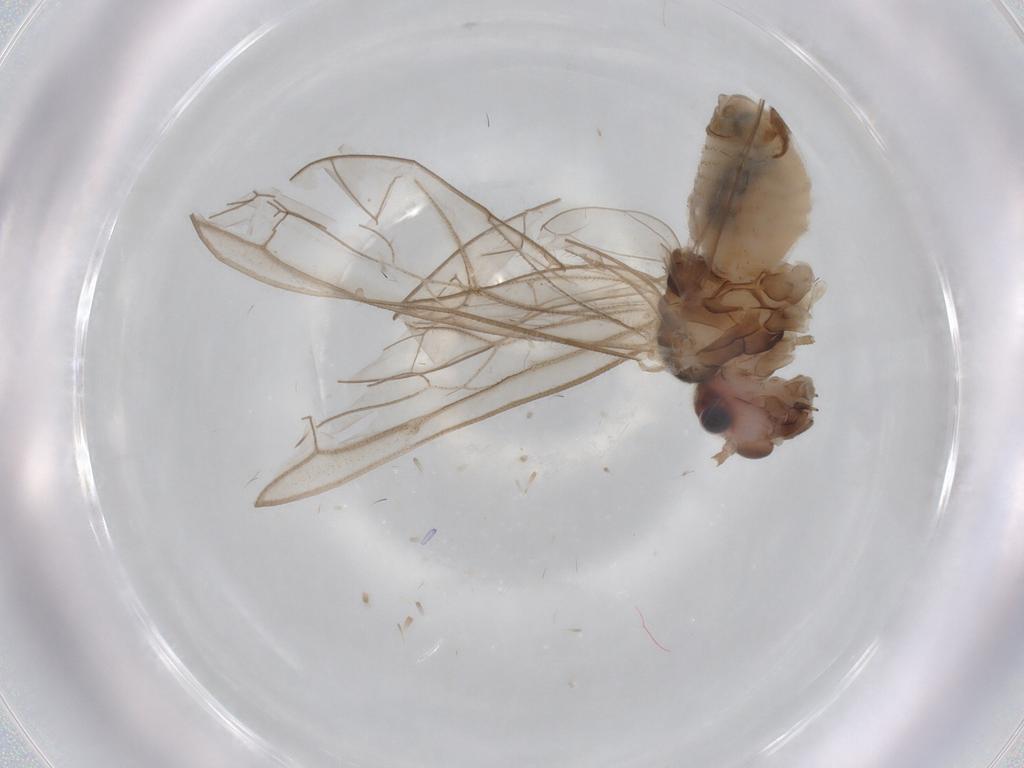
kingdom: Animalia
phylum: Arthropoda
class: Insecta
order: Psocodea
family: Stenopsocidae
